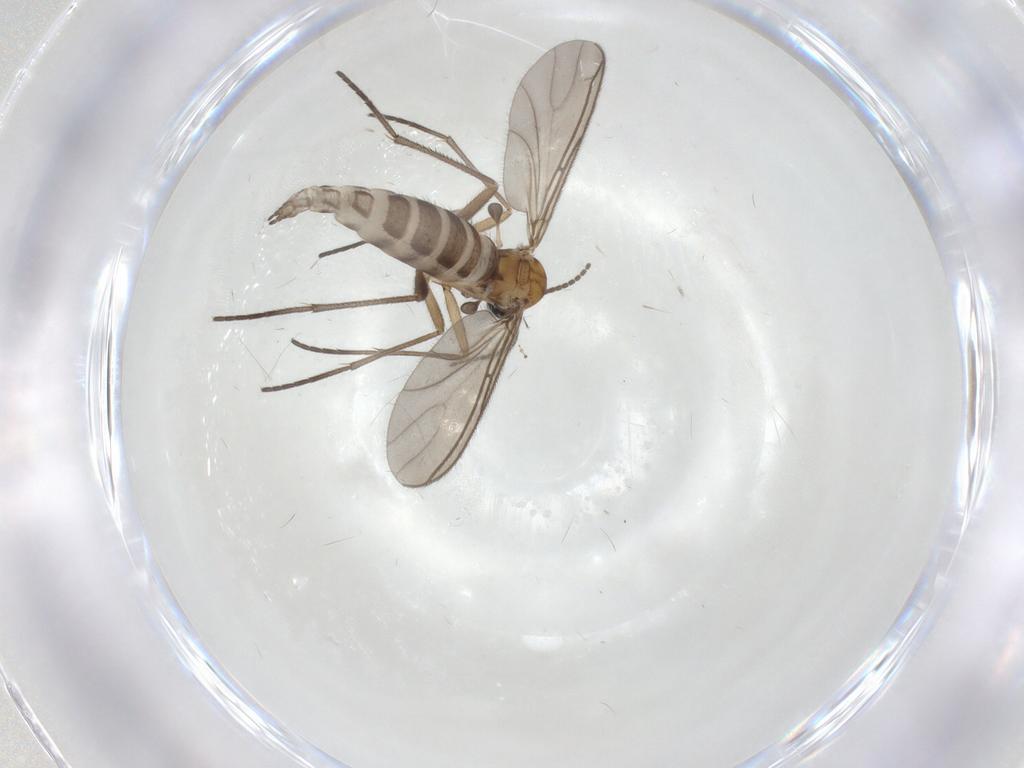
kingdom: Animalia
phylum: Arthropoda
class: Insecta
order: Diptera
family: Sciaridae
